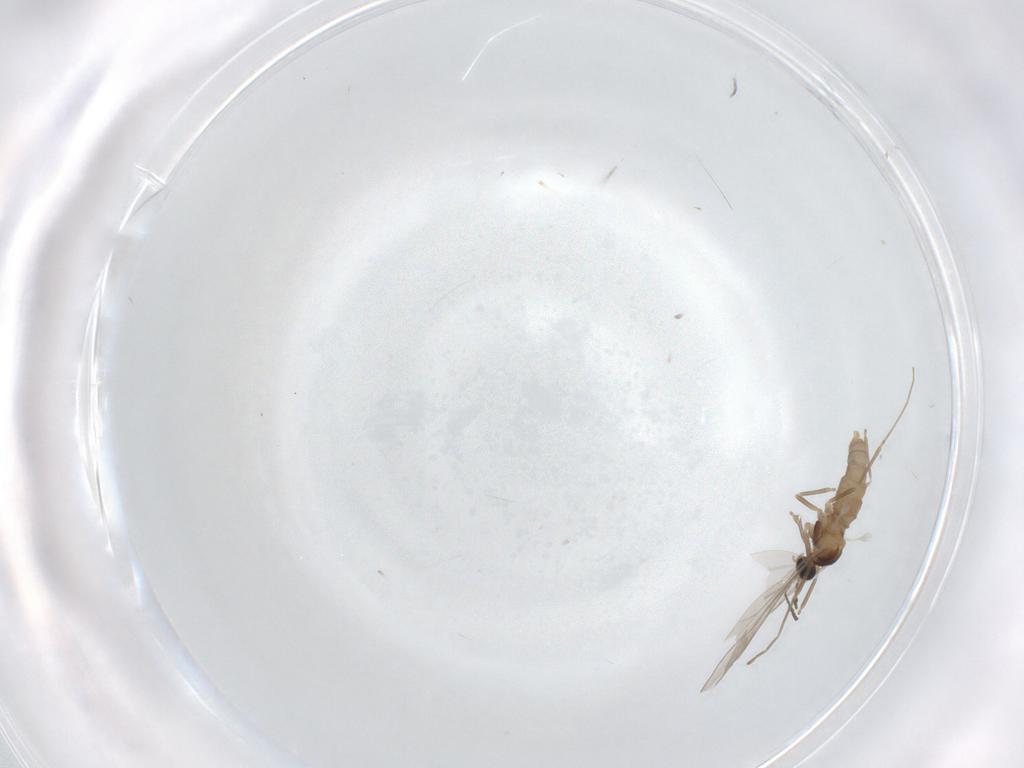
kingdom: Animalia
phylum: Arthropoda
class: Insecta
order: Diptera
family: Cecidomyiidae
